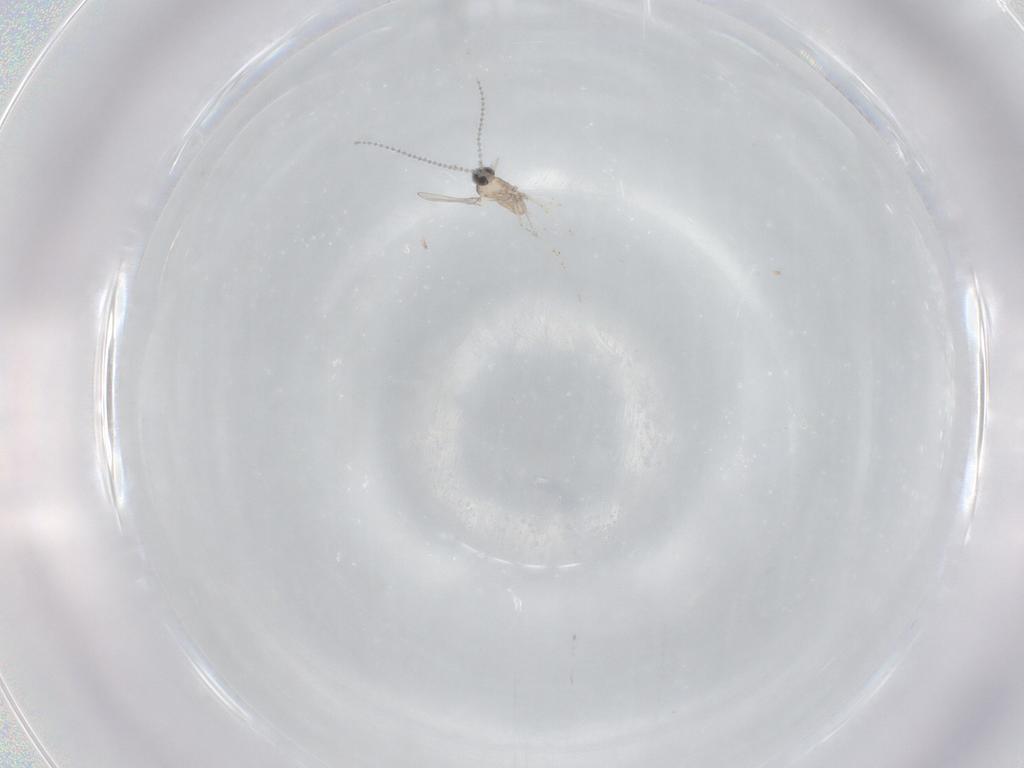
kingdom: Animalia
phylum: Arthropoda
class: Insecta
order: Diptera
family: Cecidomyiidae
